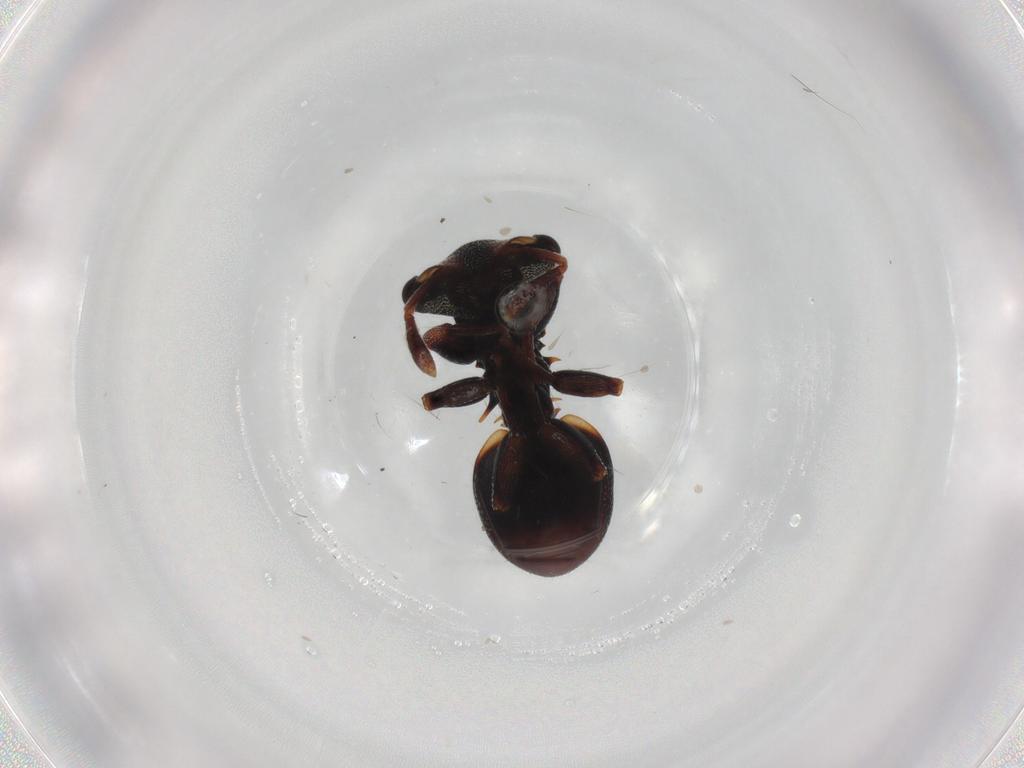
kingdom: Animalia
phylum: Arthropoda
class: Insecta
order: Hymenoptera
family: Formicidae
